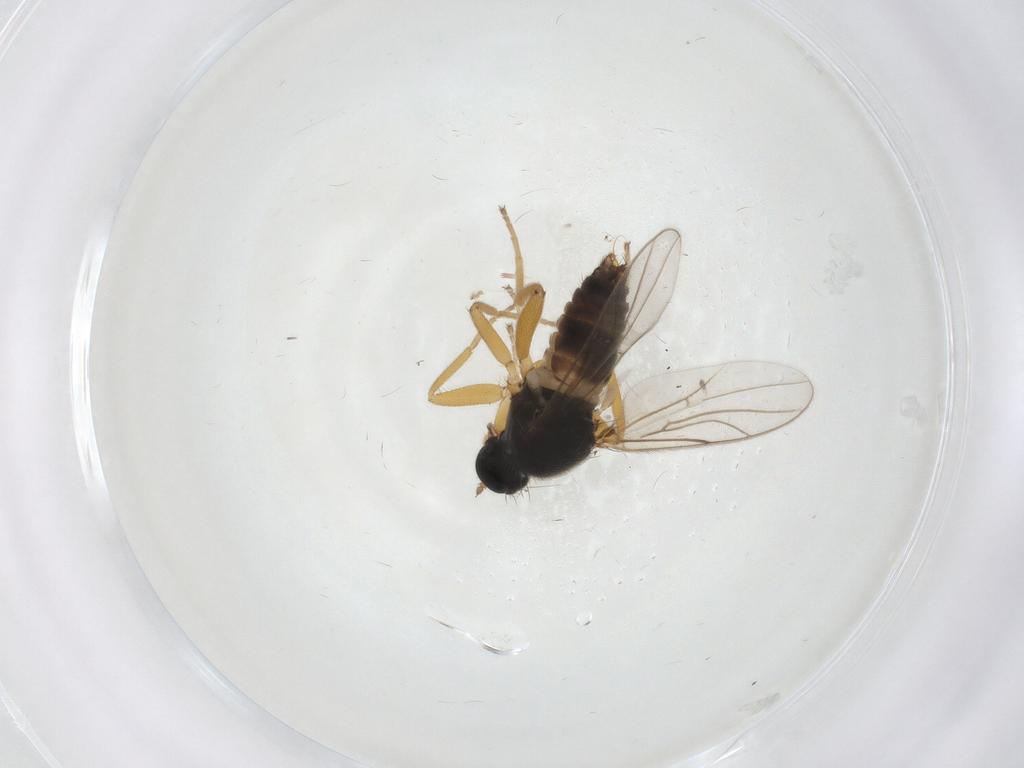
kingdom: Animalia
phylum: Arthropoda
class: Insecta
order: Diptera
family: Hybotidae
